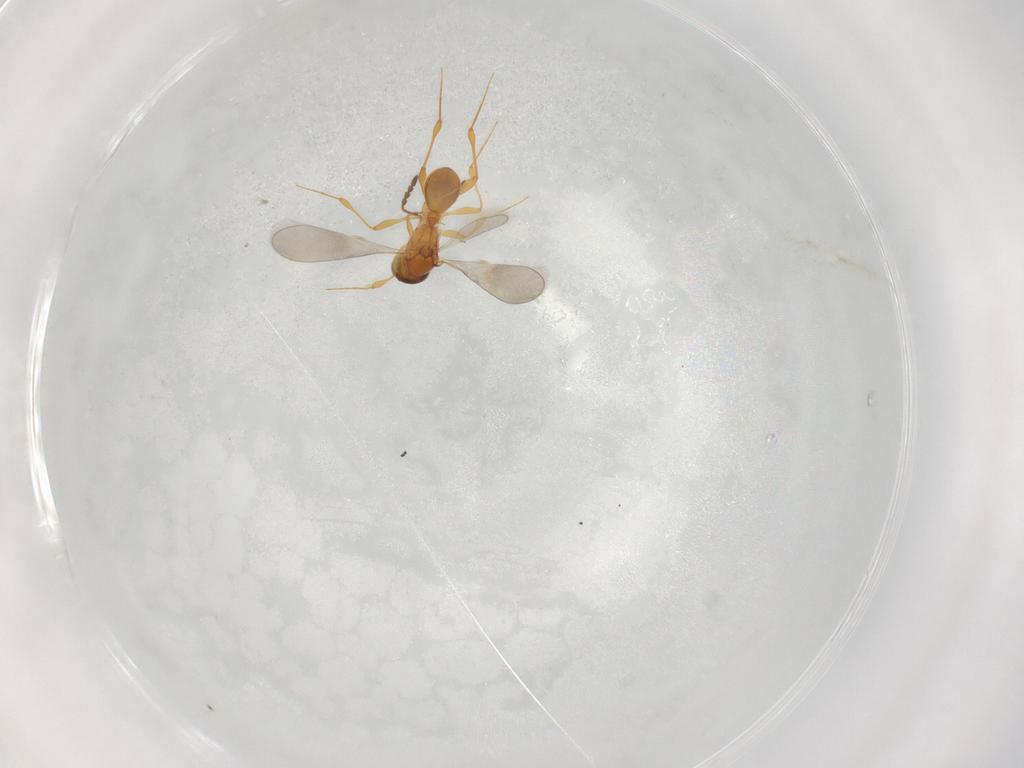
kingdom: Animalia
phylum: Arthropoda
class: Insecta
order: Hymenoptera
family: Platygastridae
